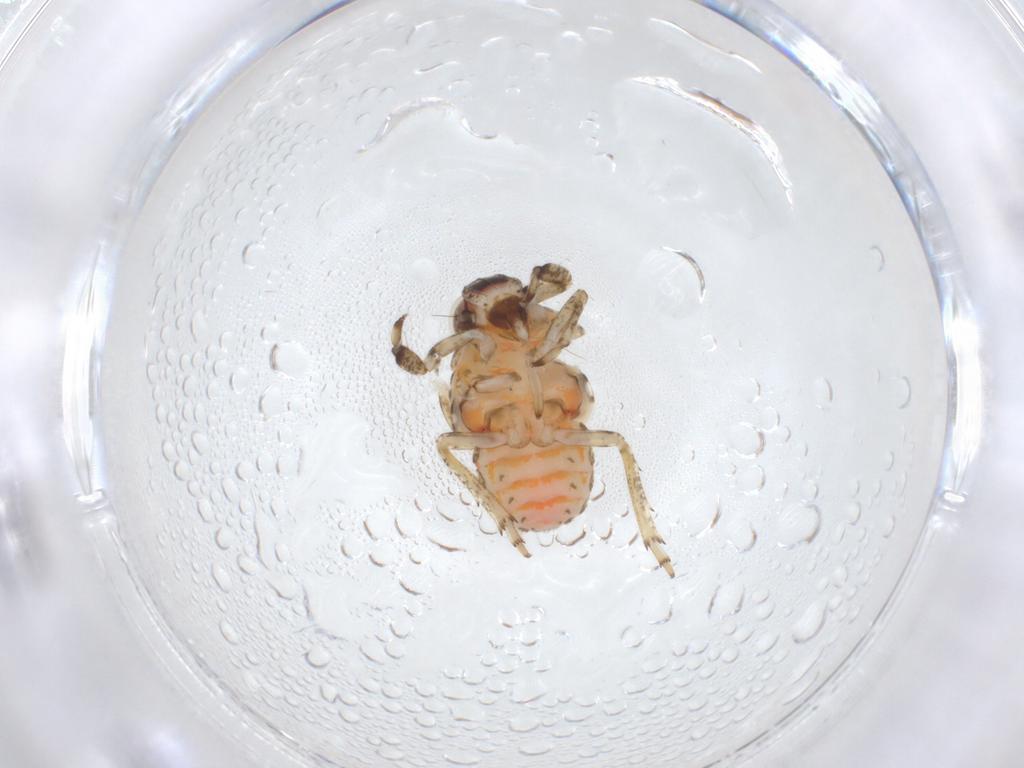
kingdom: Animalia
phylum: Arthropoda
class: Insecta
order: Hemiptera
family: Issidae
